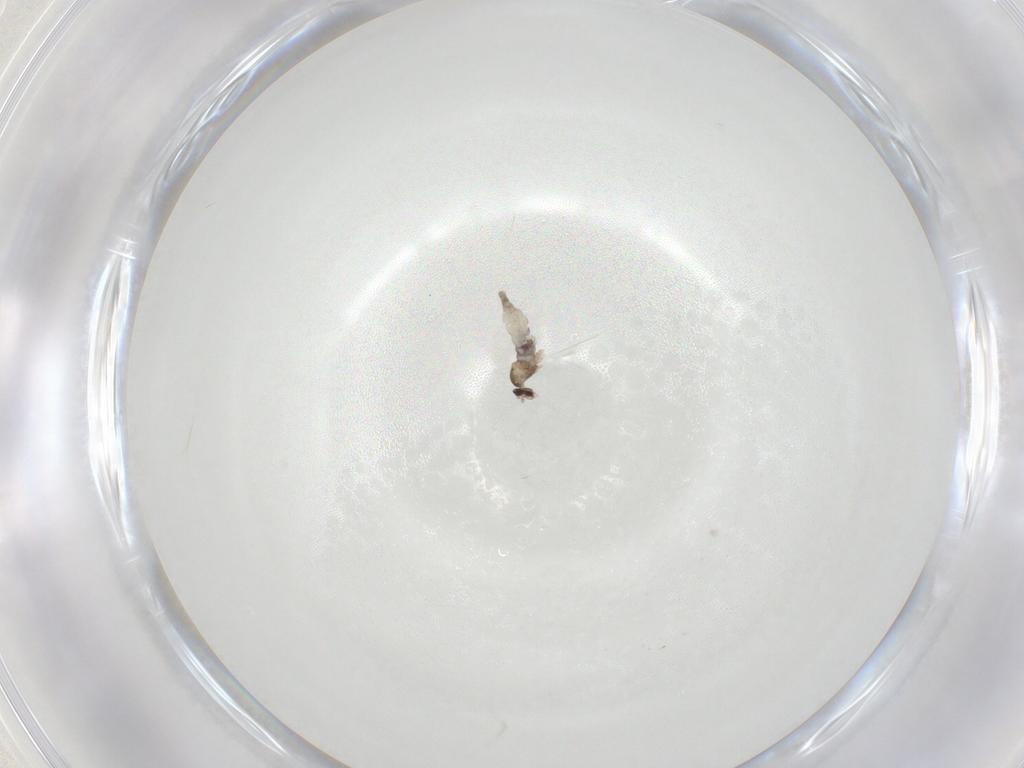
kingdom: Animalia
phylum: Arthropoda
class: Insecta
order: Diptera
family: Cecidomyiidae
